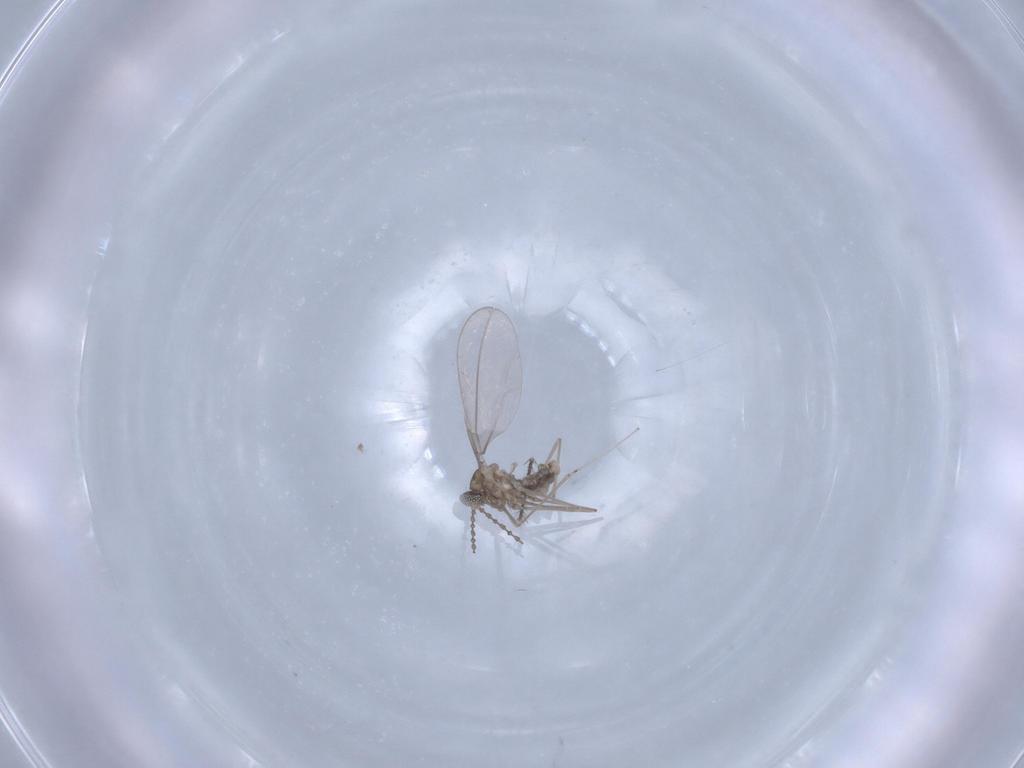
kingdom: Animalia
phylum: Arthropoda
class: Insecta
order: Diptera
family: Cecidomyiidae
